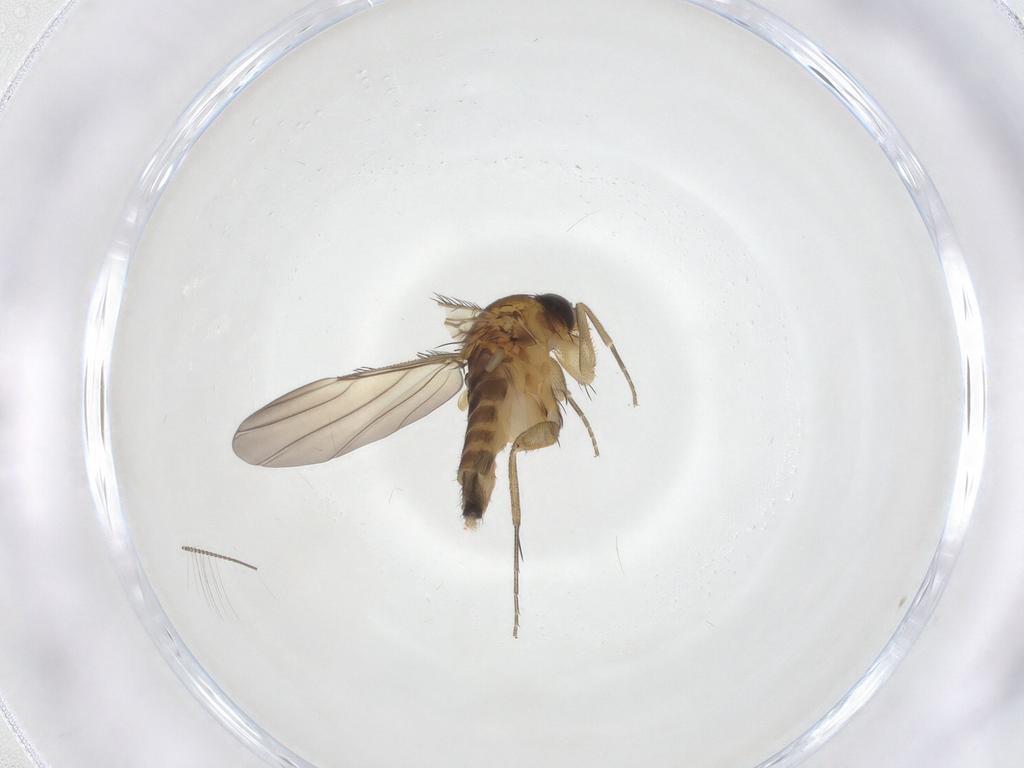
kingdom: Animalia
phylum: Arthropoda
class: Insecta
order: Diptera
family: Phoridae
